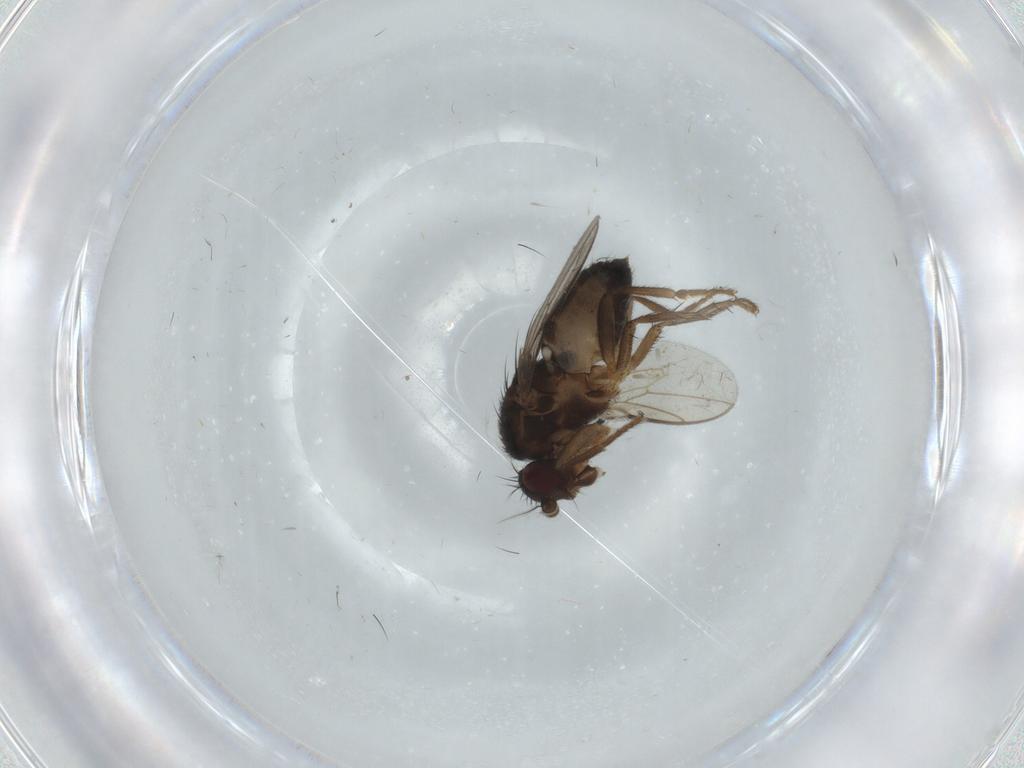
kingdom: Animalia
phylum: Arthropoda
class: Insecta
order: Diptera
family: Sphaeroceridae
